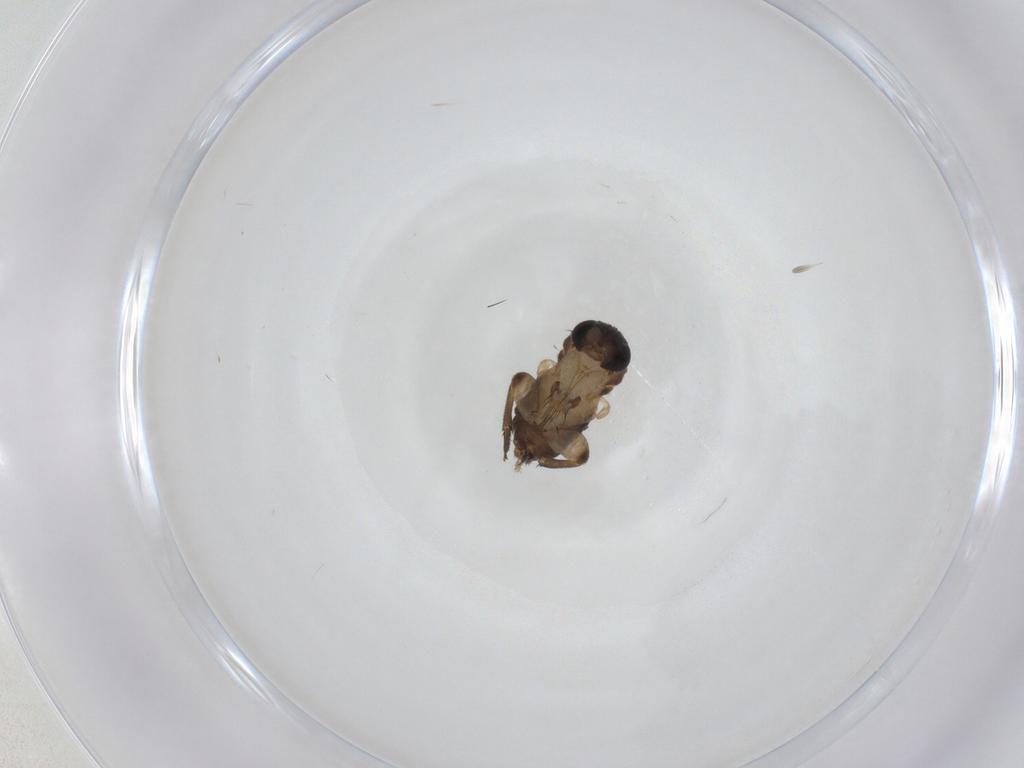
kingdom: Animalia
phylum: Arthropoda
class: Insecta
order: Diptera
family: Phoridae
